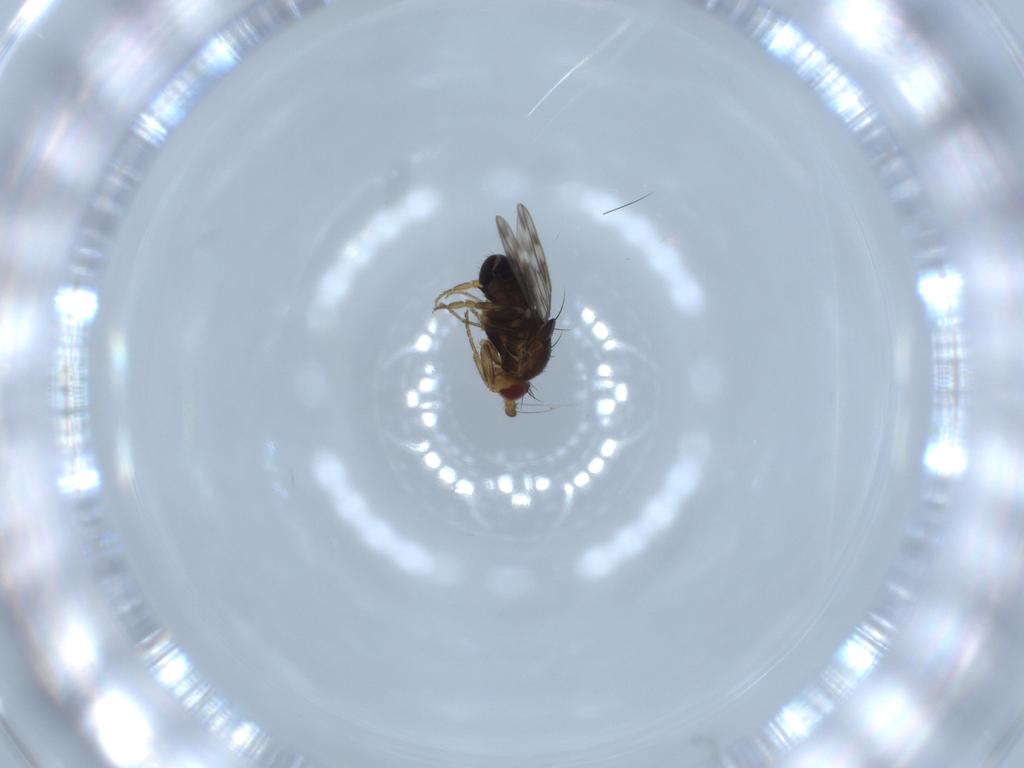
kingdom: Animalia
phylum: Arthropoda
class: Insecta
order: Diptera
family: Sphaeroceridae
